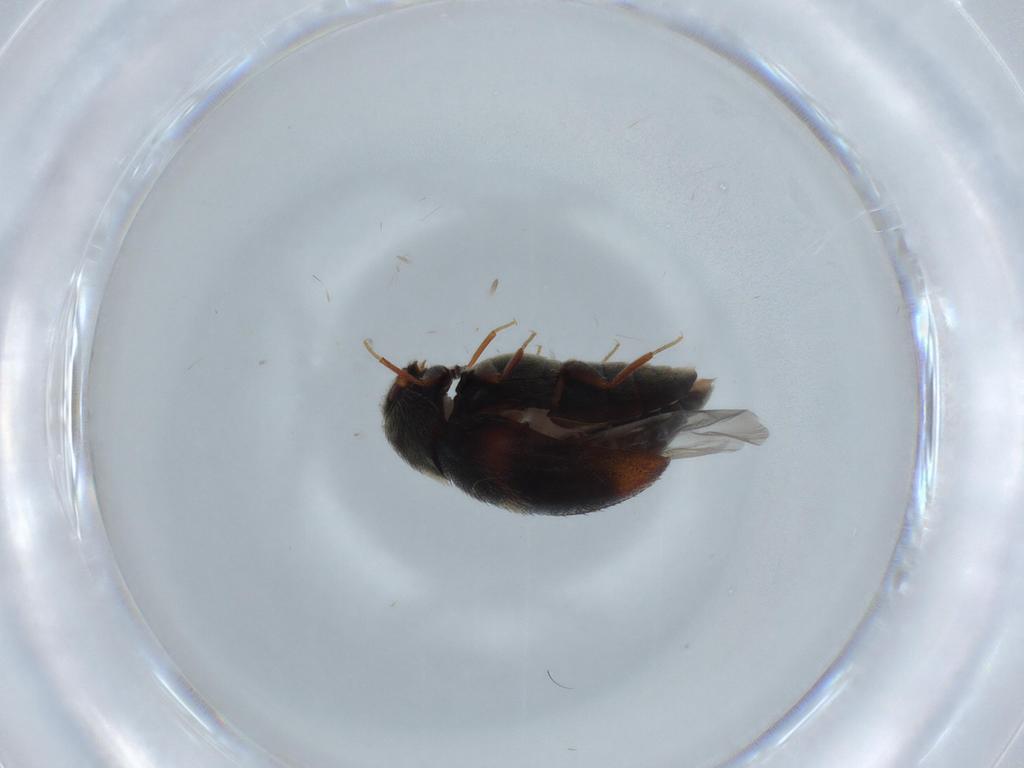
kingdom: Animalia
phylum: Arthropoda
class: Insecta
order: Coleoptera
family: Dermestidae
